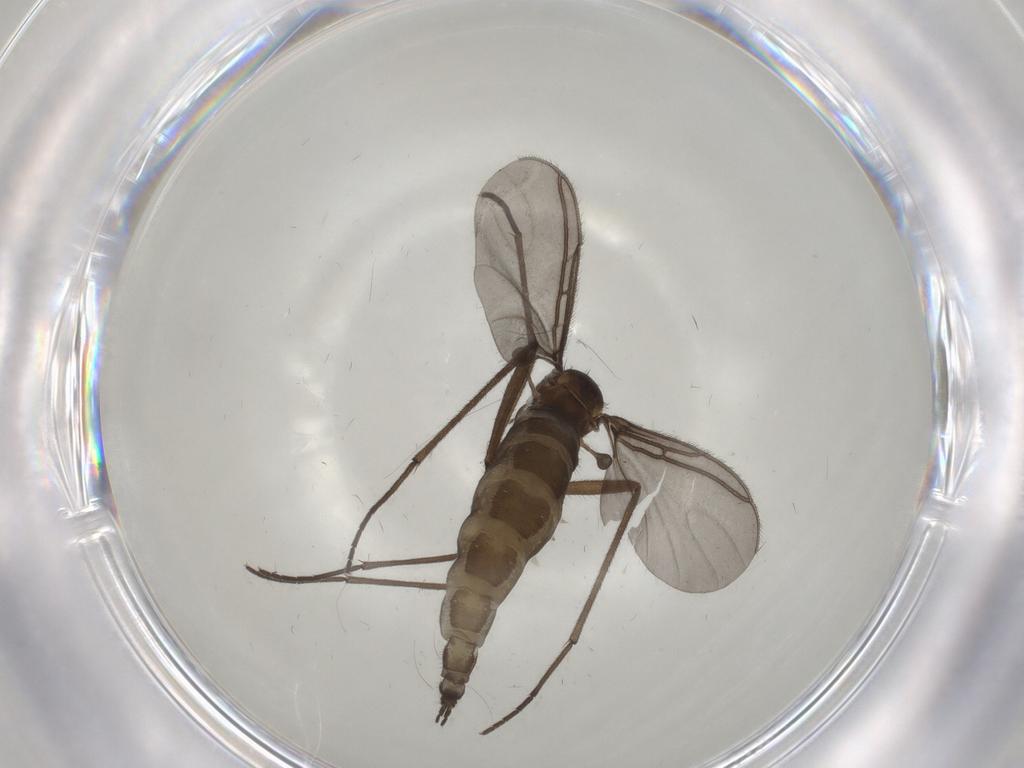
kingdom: Animalia
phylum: Arthropoda
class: Insecta
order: Diptera
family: Sciaridae
